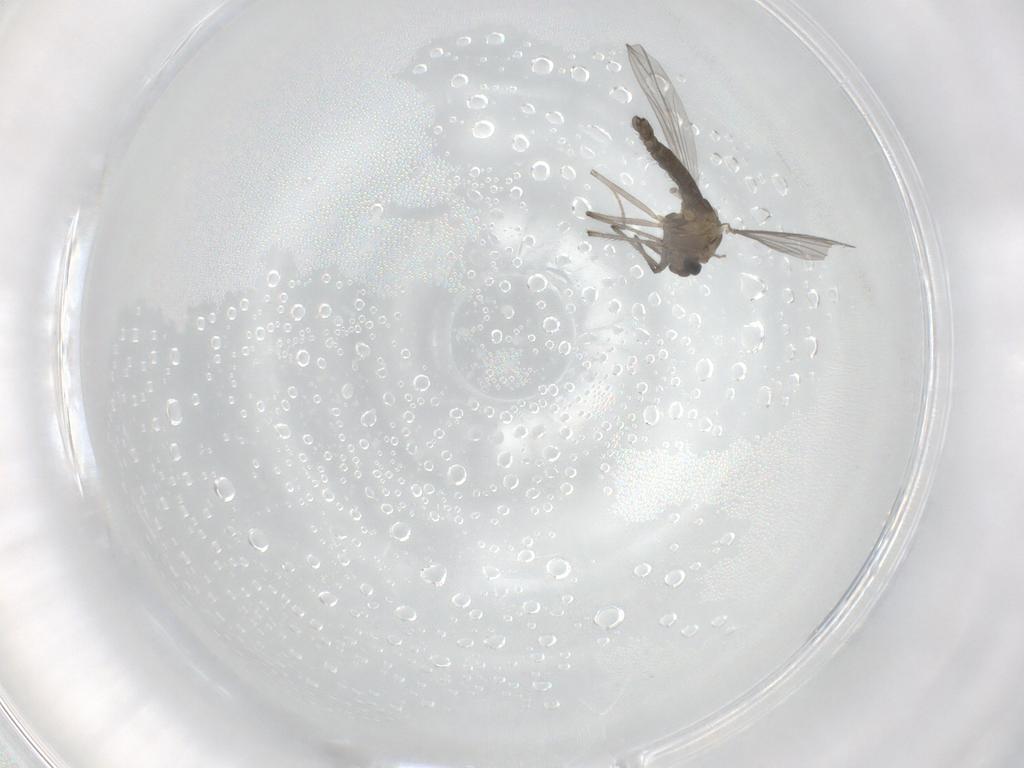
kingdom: Animalia
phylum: Arthropoda
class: Insecta
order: Diptera
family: Chironomidae
